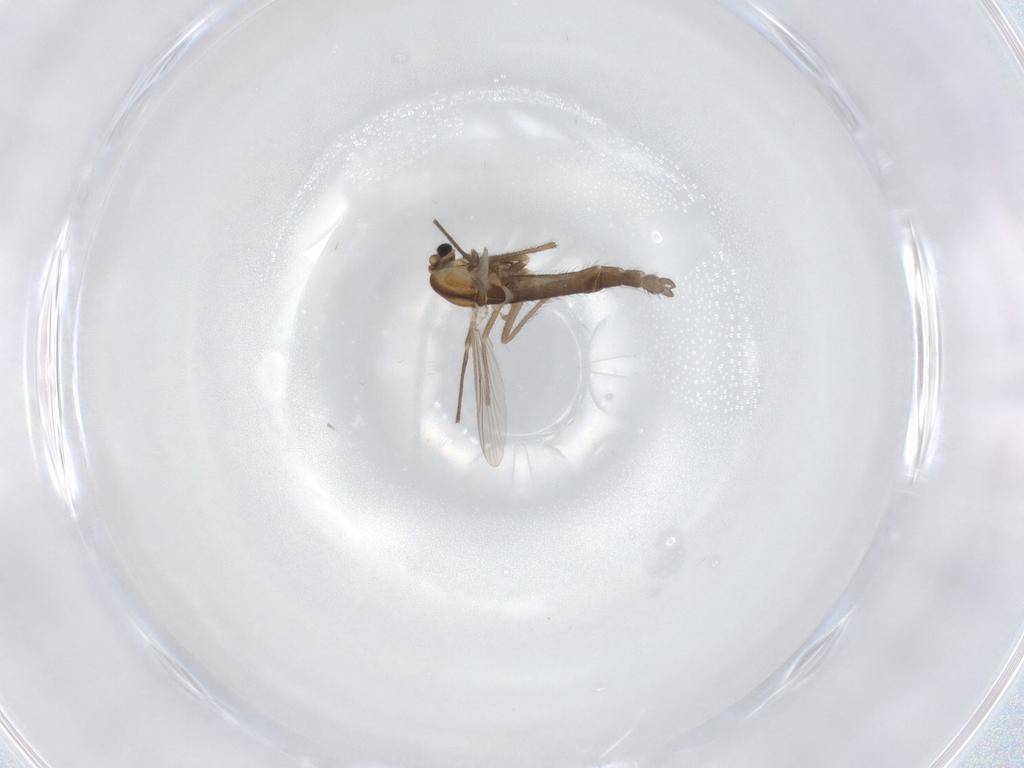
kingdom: Animalia
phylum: Arthropoda
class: Insecta
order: Diptera
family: Chironomidae
